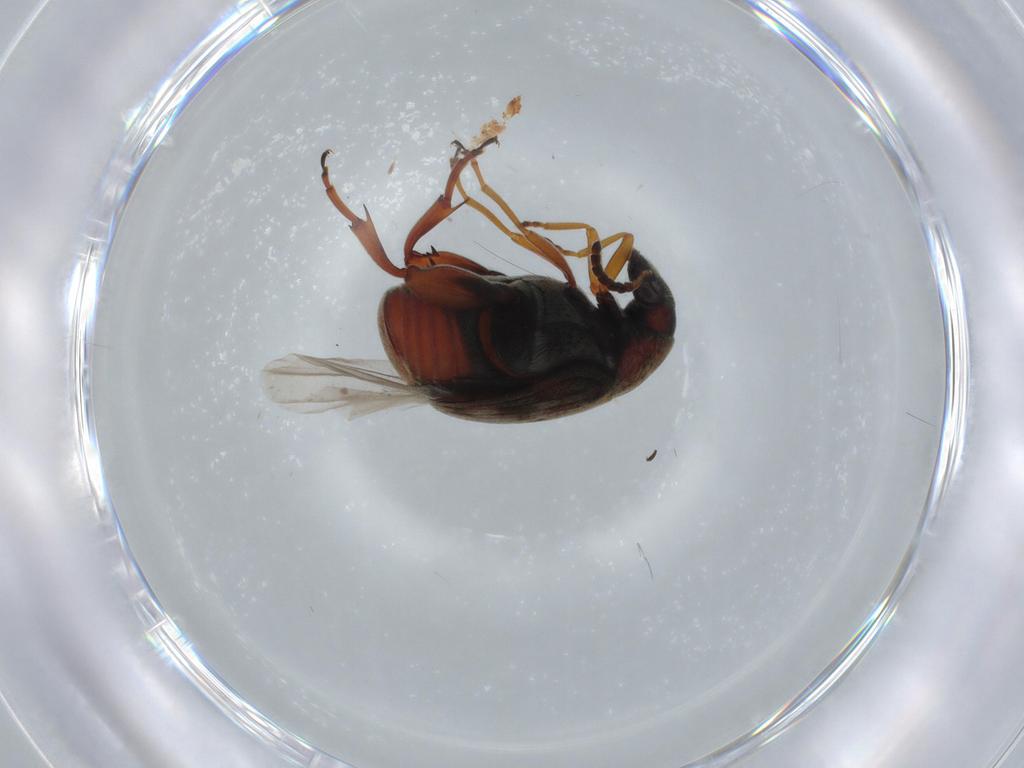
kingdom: Animalia
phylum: Arthropoda
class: Insecta
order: Coleoptera
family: Chrysomelidae
